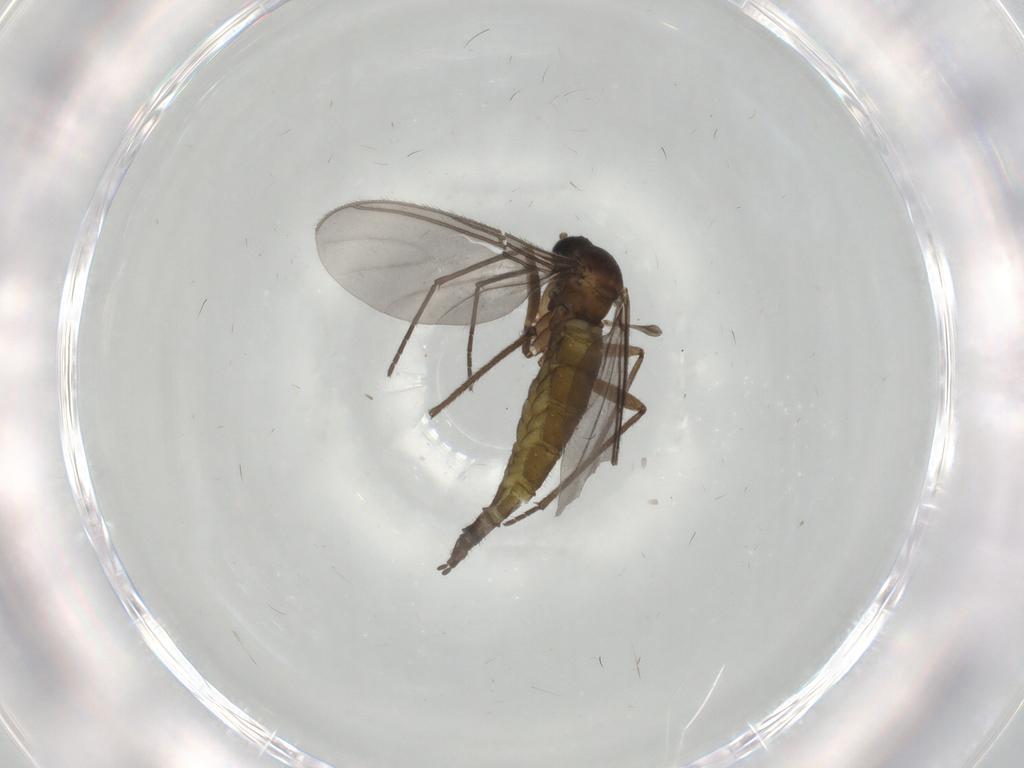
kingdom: Animalia
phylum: Arthropoda
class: Insecta
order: Diptera
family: Sciaridae
